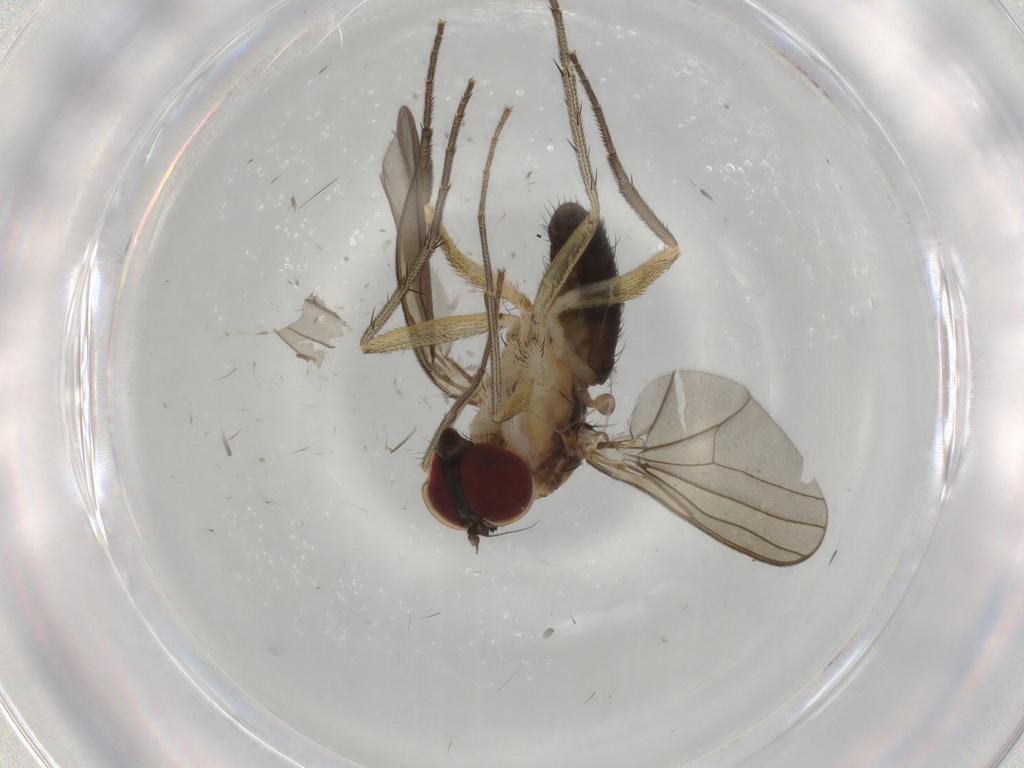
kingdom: Animalia
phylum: Arthropoda
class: Insecta
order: Diptera
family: Dolichopodidae
